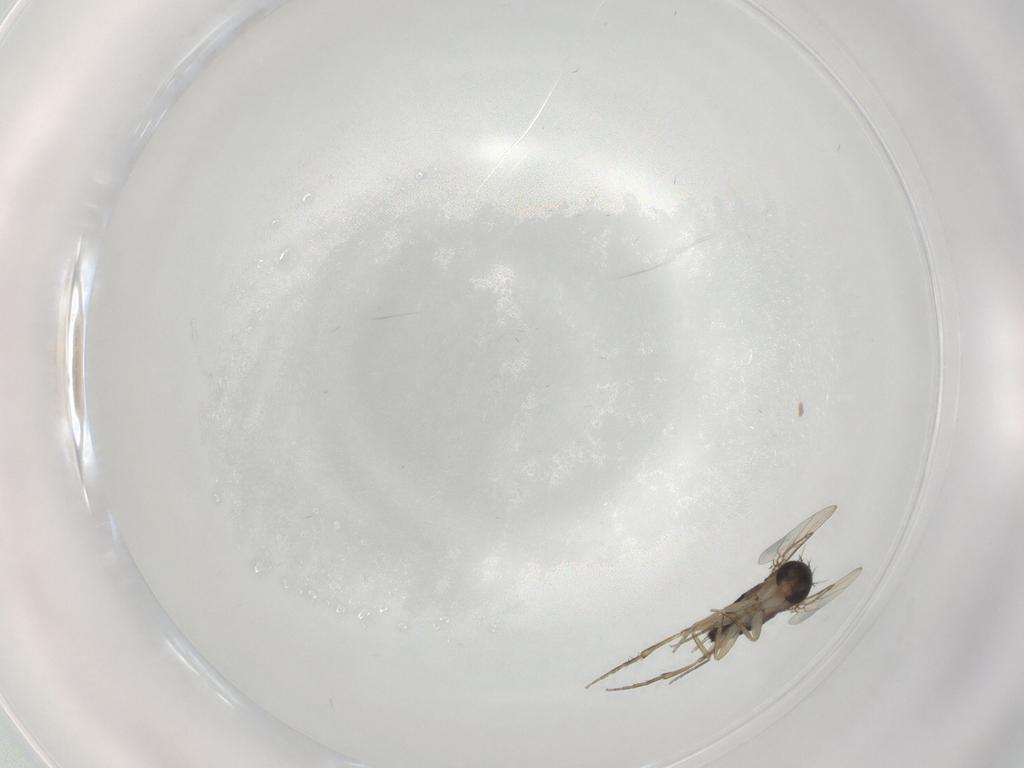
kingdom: Animalia
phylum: Arthropoda
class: Insecta
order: Diptera
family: Phoridae
